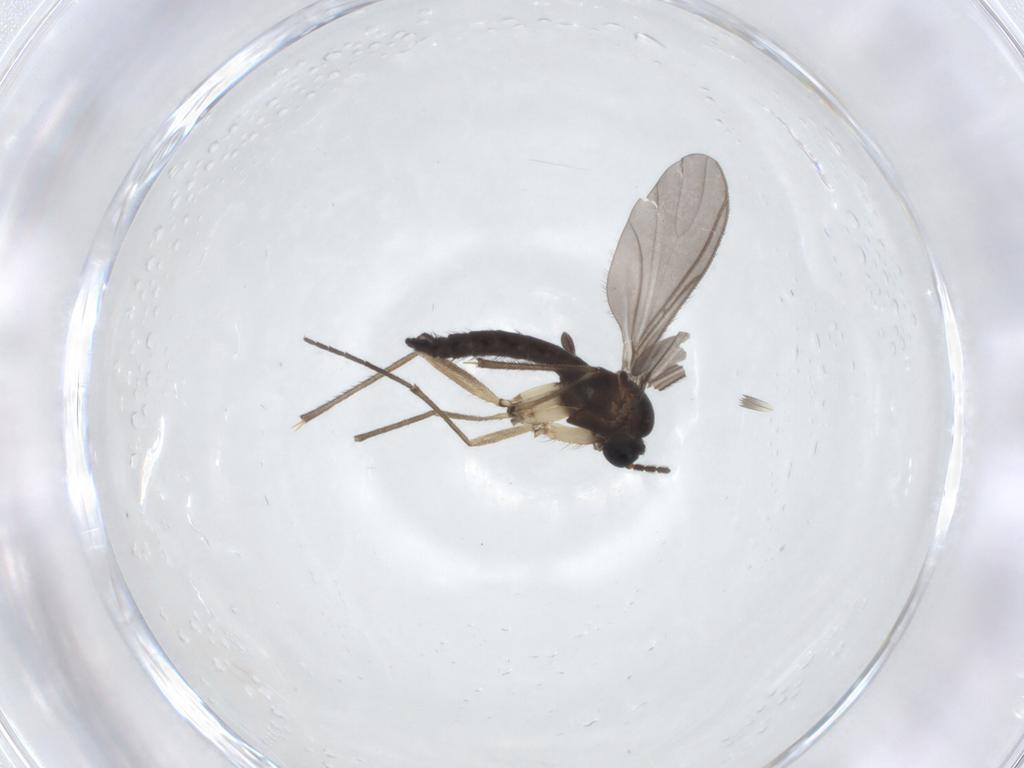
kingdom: Animalia
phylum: Arthropoda
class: Insecta
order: Diptera
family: Sciaridae
